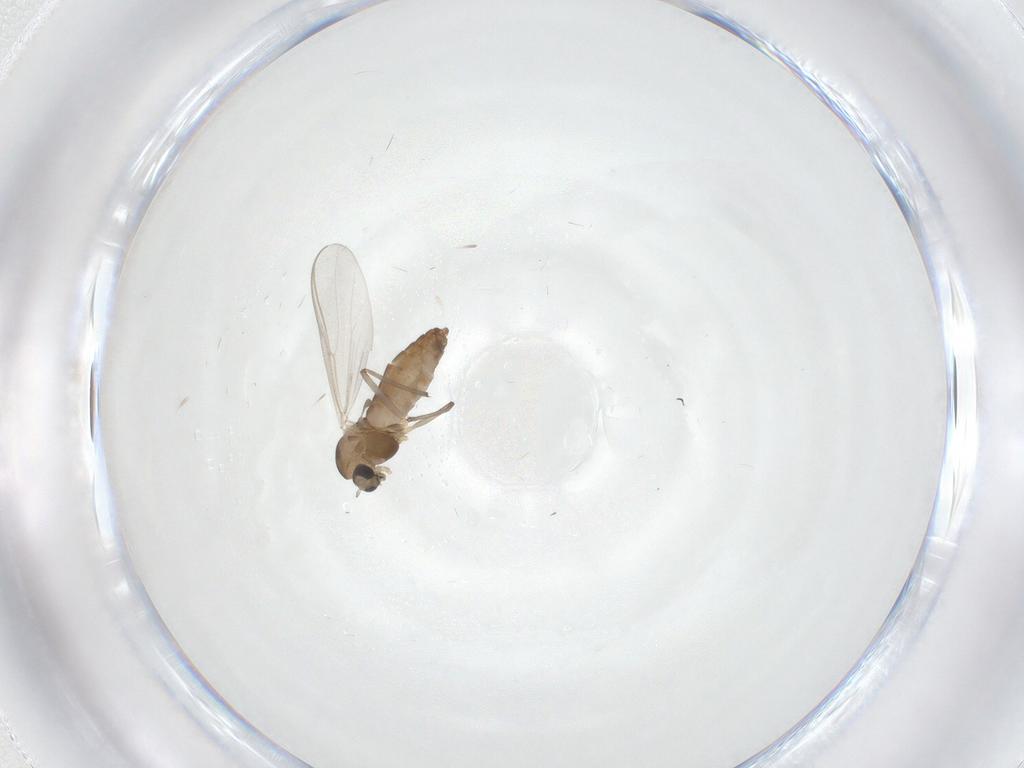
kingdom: Animalia
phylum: Arthropoda
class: Insecta
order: Diptera
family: Chironomidae
